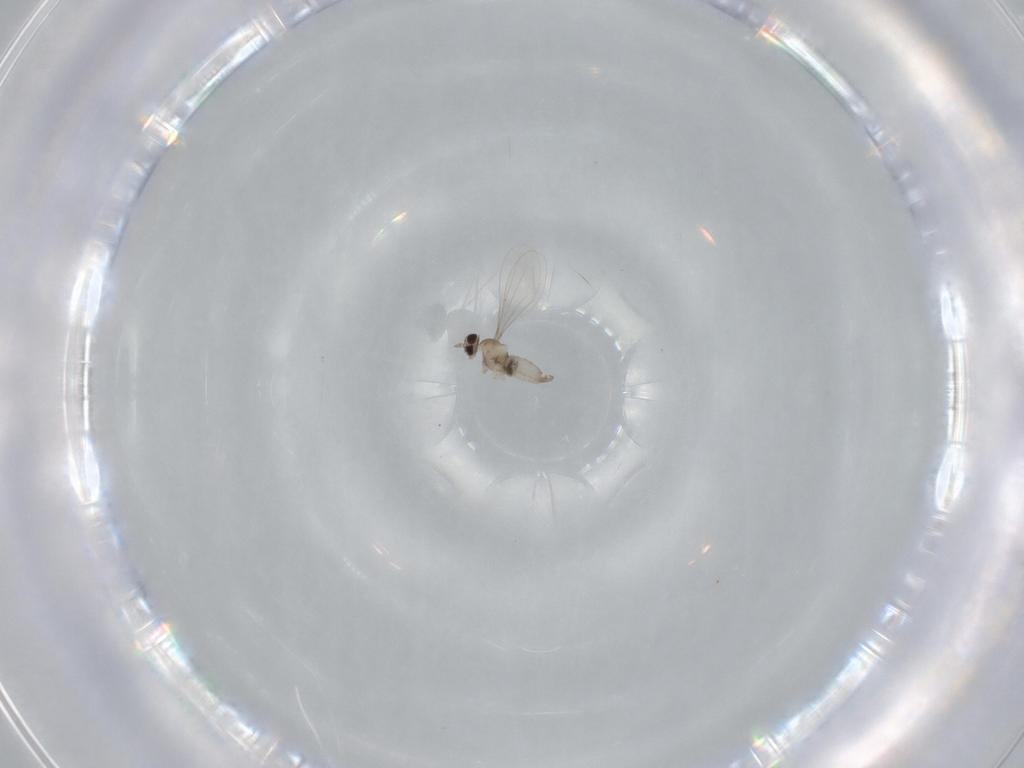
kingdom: Animalia
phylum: Arthropoda
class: Insecta
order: Diptera
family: Cecidomyiidae
